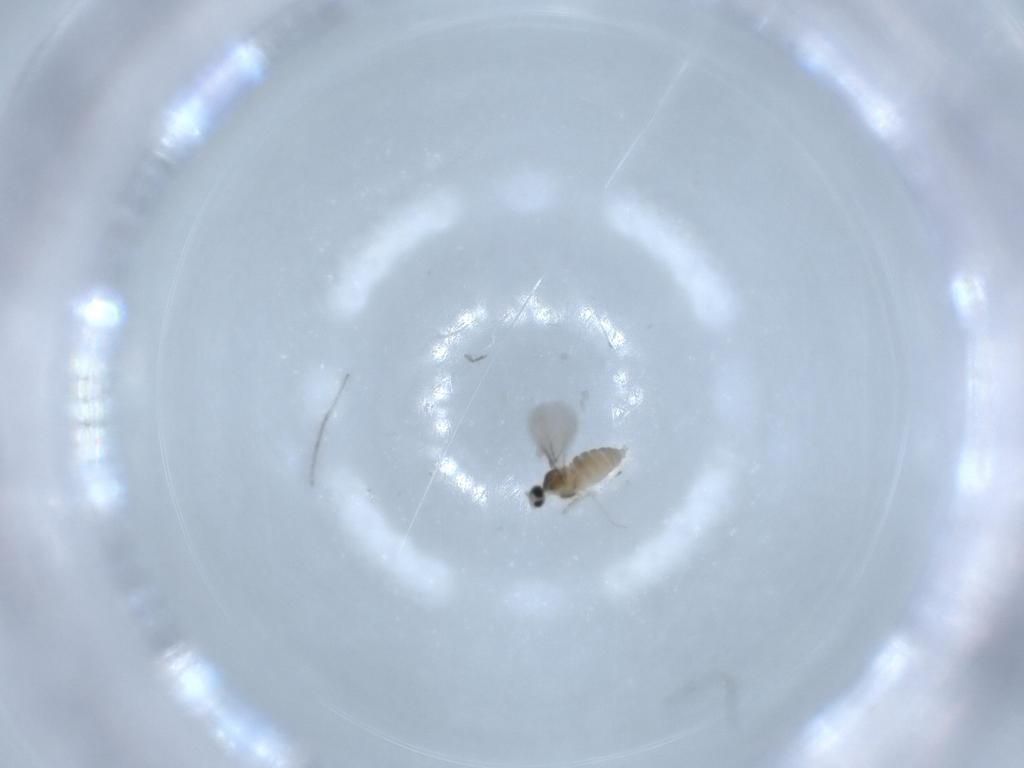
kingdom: Animalia
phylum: Arthropoda
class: Insecta
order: Diptera
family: Cecidomyiidae
